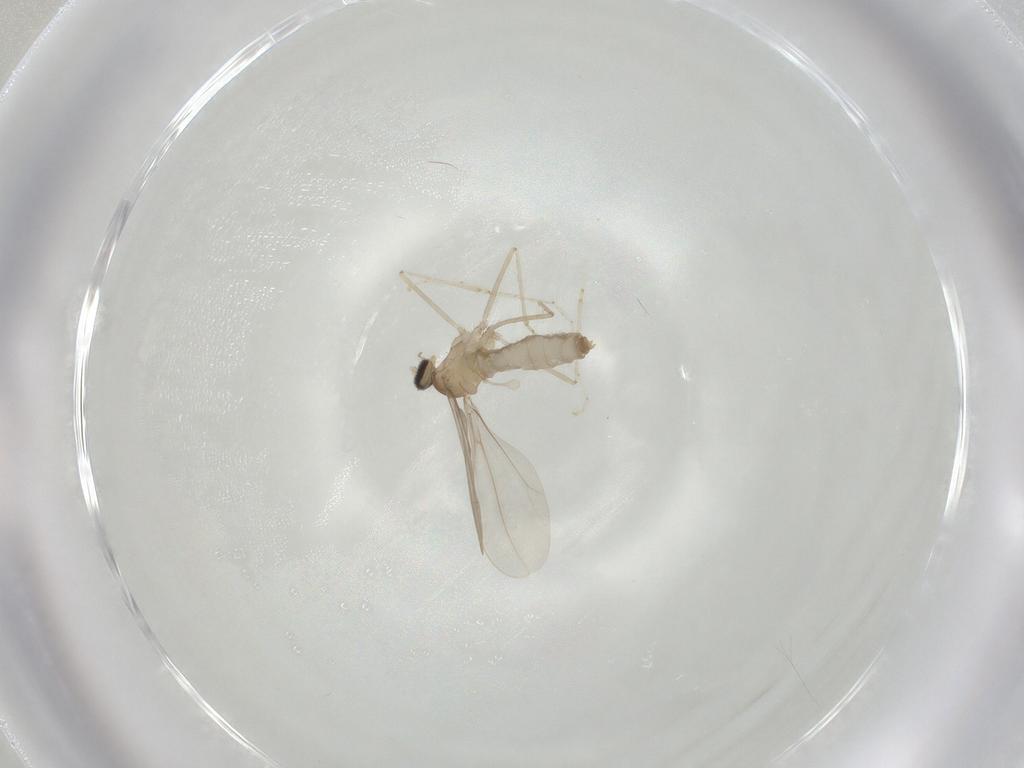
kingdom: Animalia
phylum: Arthropoda
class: Insecta
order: Diptera
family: Cecidomyiidae
